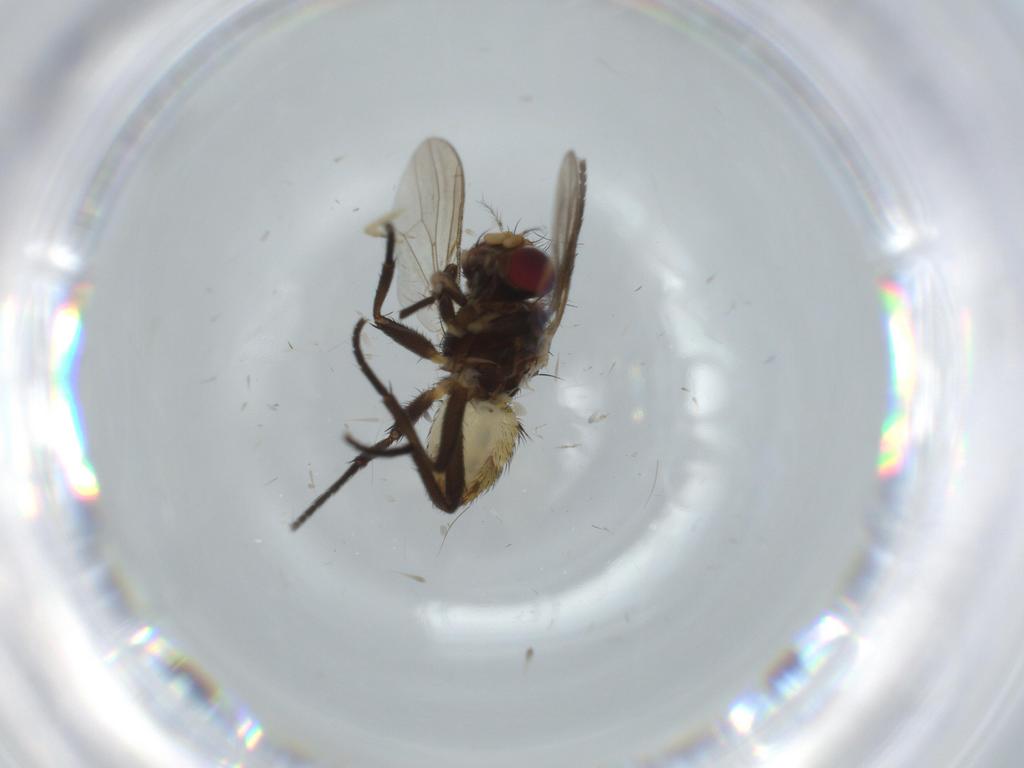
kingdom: Animalia
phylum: Arthropoda
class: Insecta
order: Diptera
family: Anthomyiidae
